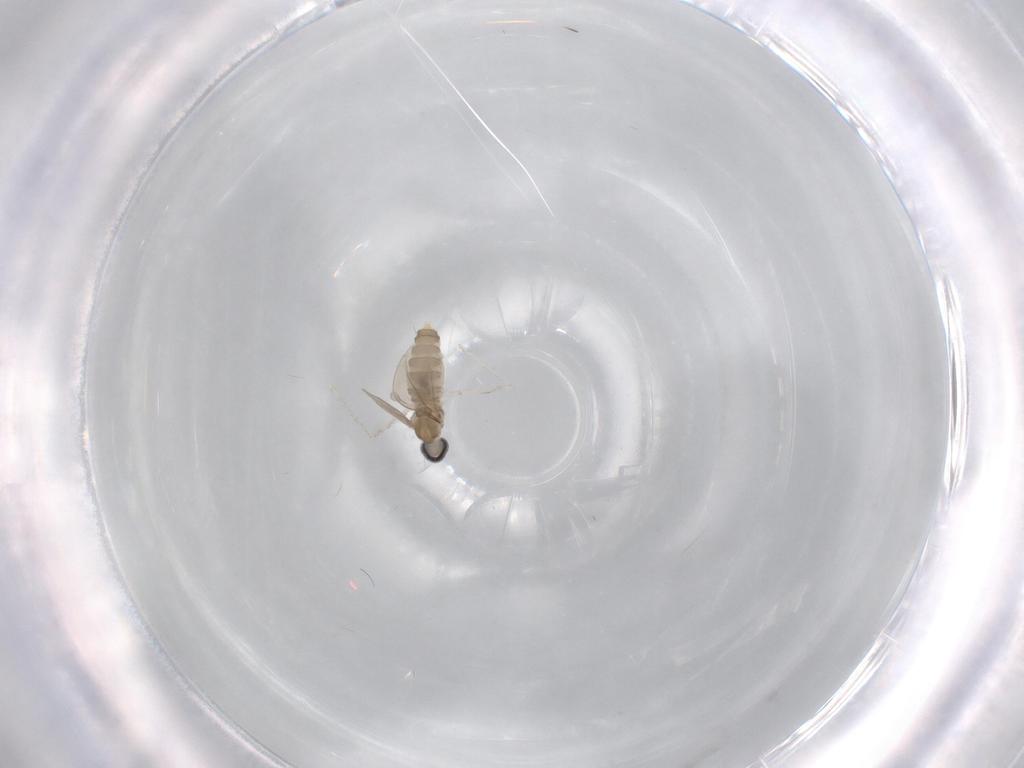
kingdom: Animalia
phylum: Arthropoda
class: Insecta
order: Diptera
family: Cecidomyiidae
